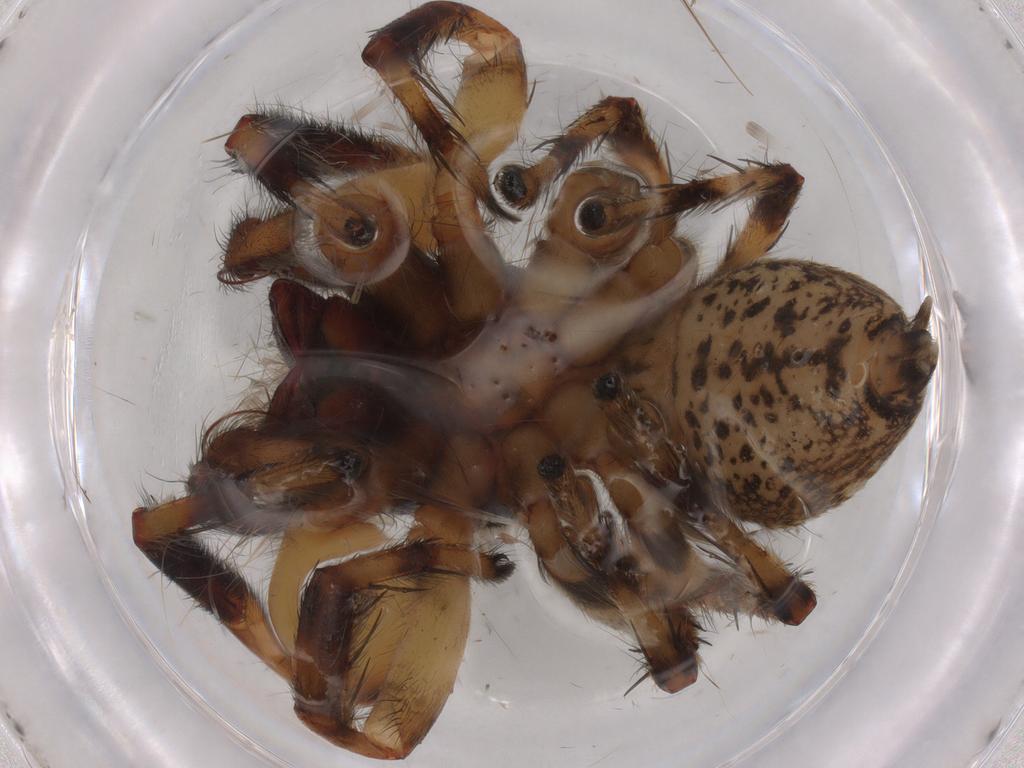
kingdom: Animalia
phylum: Arthropoda
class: Arachnida
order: Araneae
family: Salticidae
